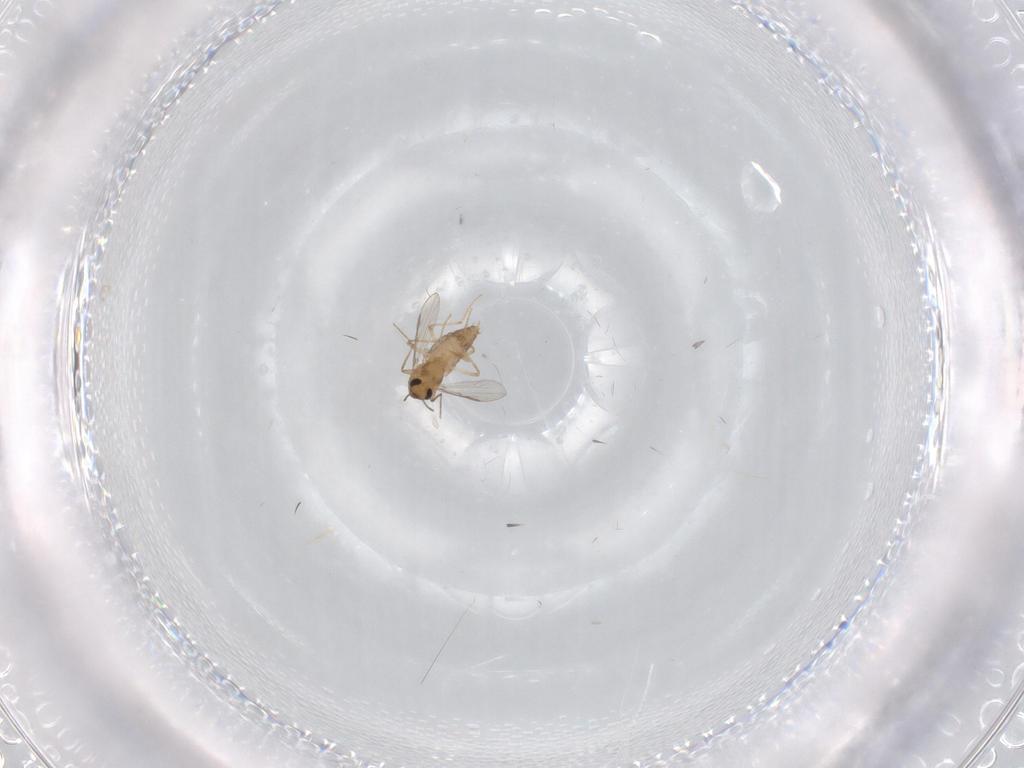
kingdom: Animalia
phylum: Arthropoda
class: Insecta
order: Diptera
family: Chironomidae
